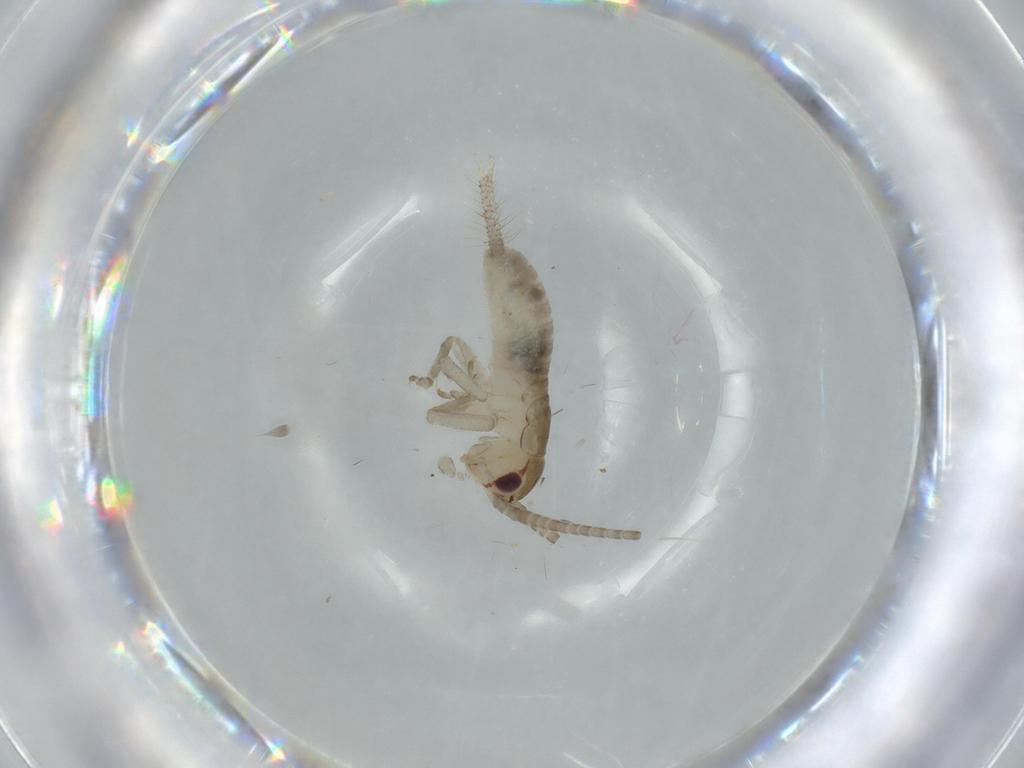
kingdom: Animalia
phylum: Arthropoda
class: Insecta
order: Orthoptera
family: Gryllidae
